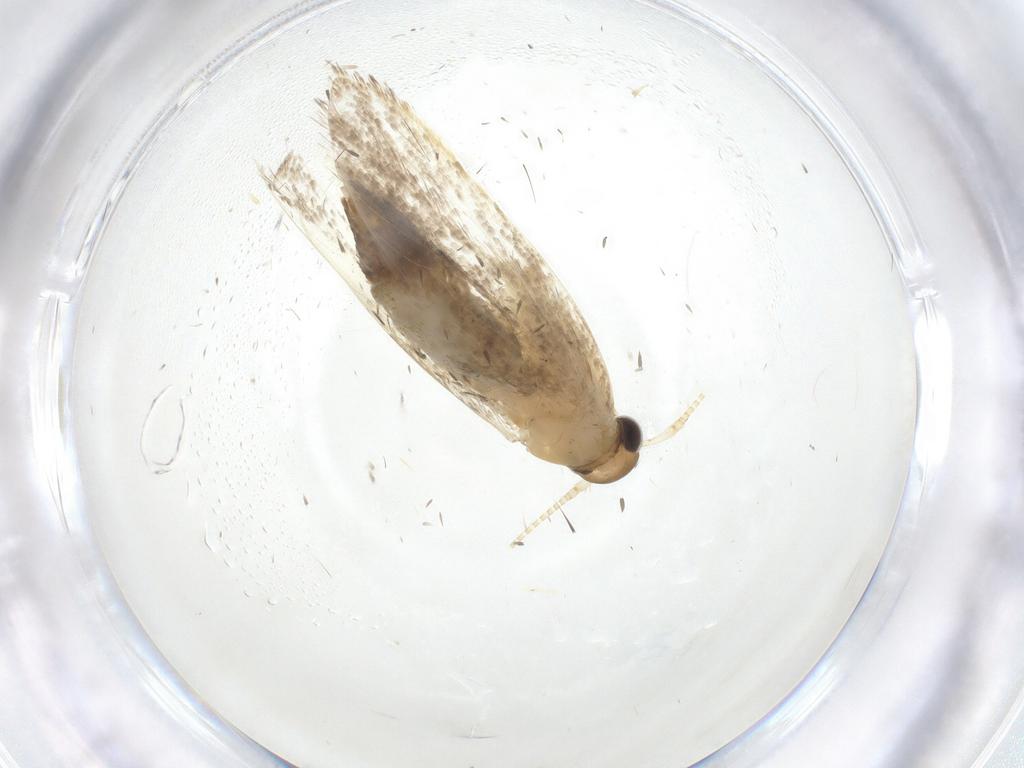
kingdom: Animalia
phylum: Arthropoda
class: Insecta
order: Lepidoptera
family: Lecithoceridae
